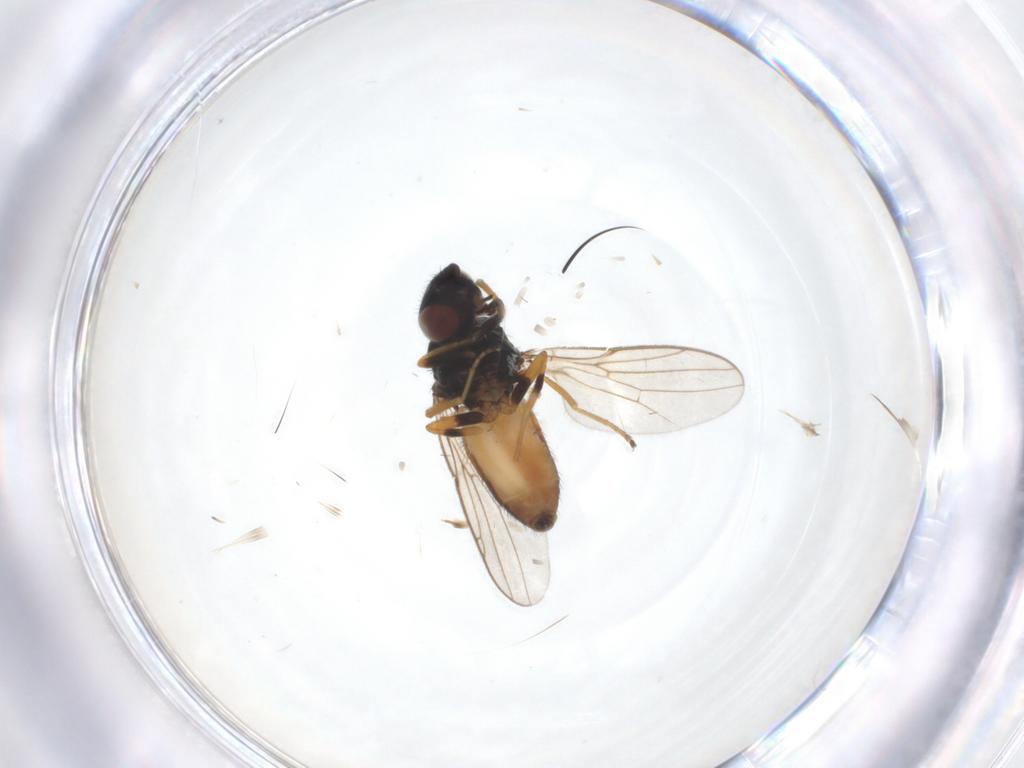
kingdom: Animalia
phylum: Arthropoda
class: Insecta
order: Diptera
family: Chloropidae
